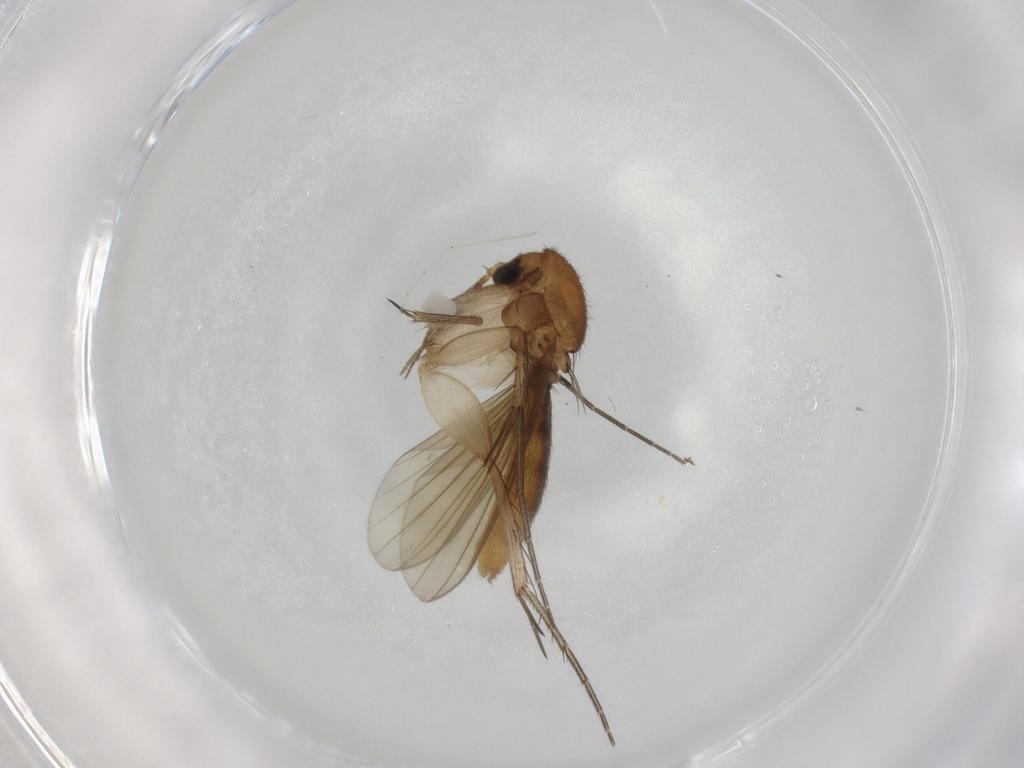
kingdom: Animalia
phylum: Arthropoda
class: Insecta
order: Diptera
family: Mycetophilidae
